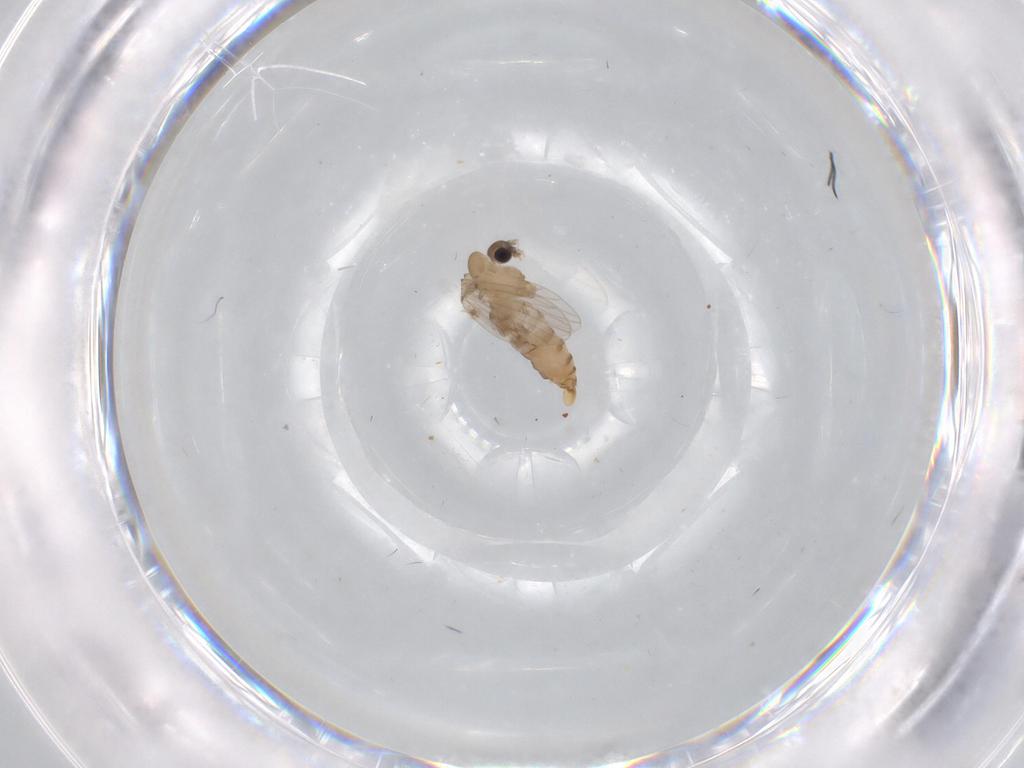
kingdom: Animalia
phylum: Arthropoda
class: Insecta
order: Diptera
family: Psychodidae
